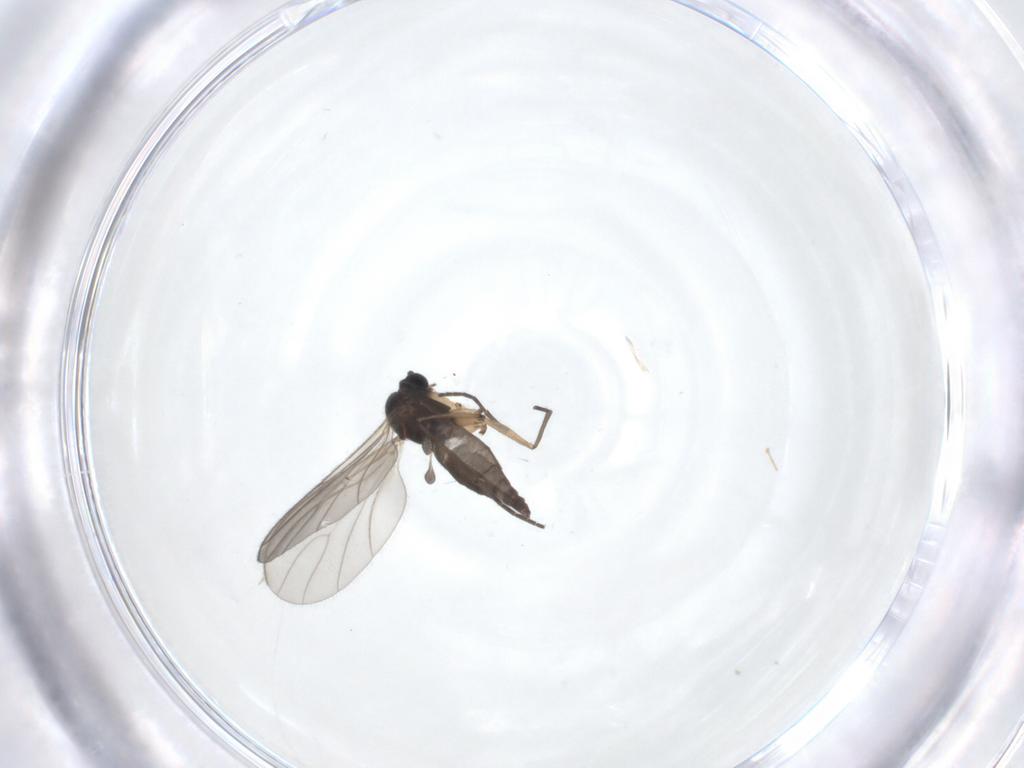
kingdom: Animalia
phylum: Arthropoda
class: Insecta
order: Diptera
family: Sciaridae
